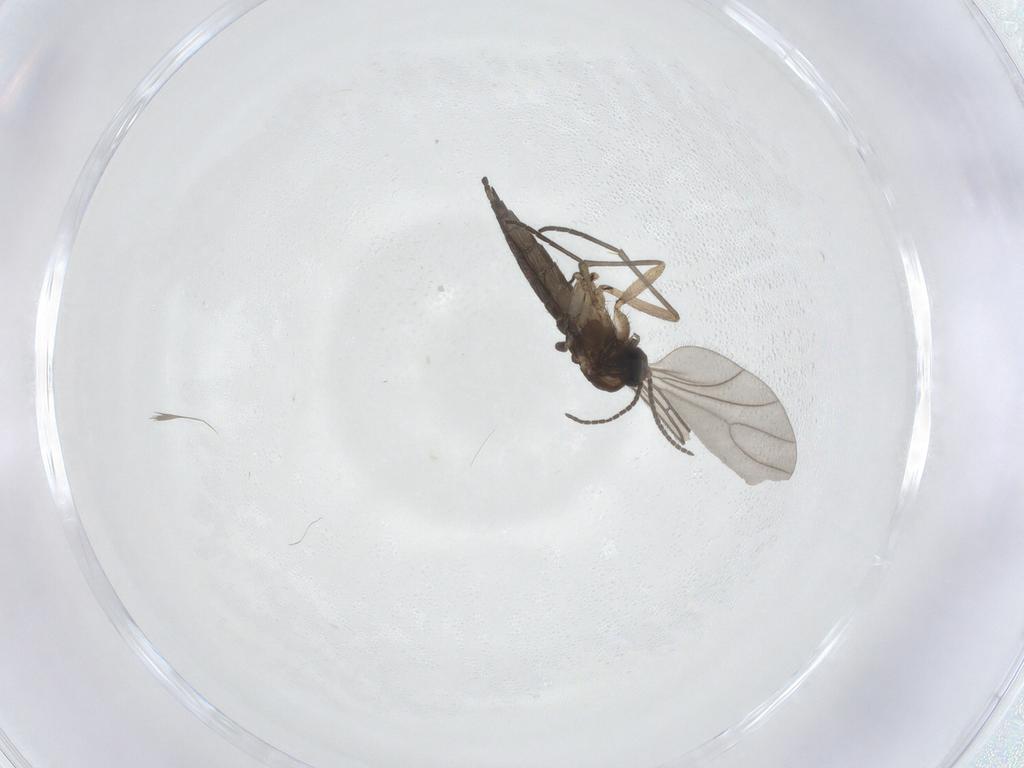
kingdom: Animalia
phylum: Arthropoda
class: Insecta
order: Diptera
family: Sciaridae
